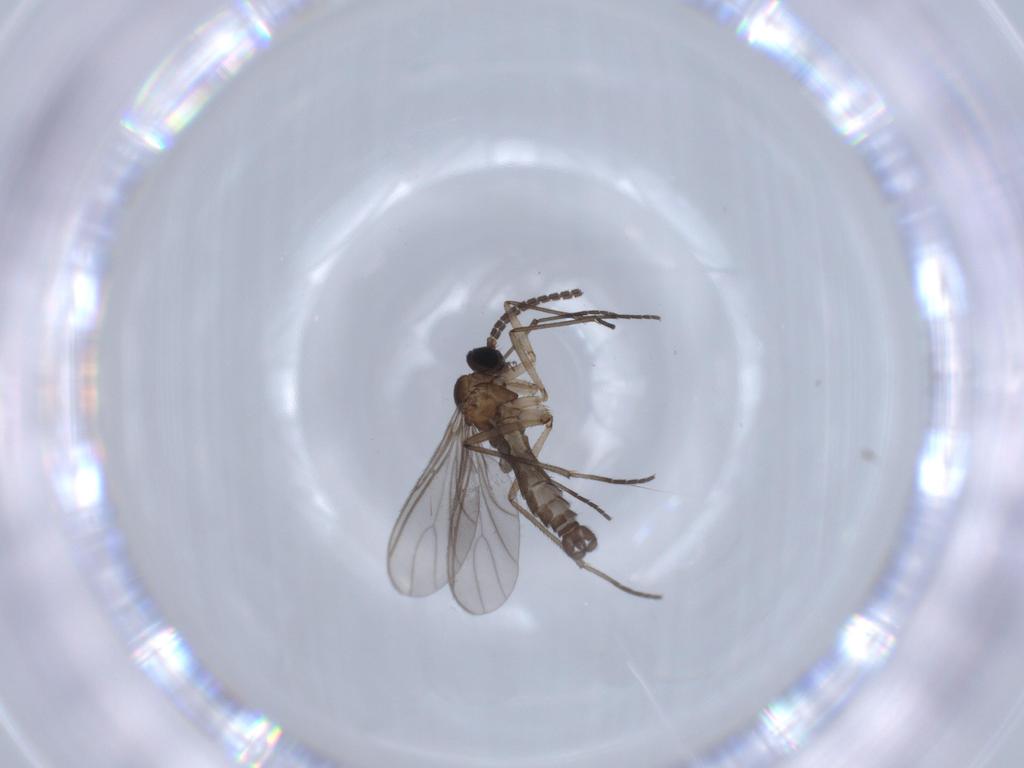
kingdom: Animalia
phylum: Arthropoda
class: Insecta
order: Diptera
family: Sciaridae
